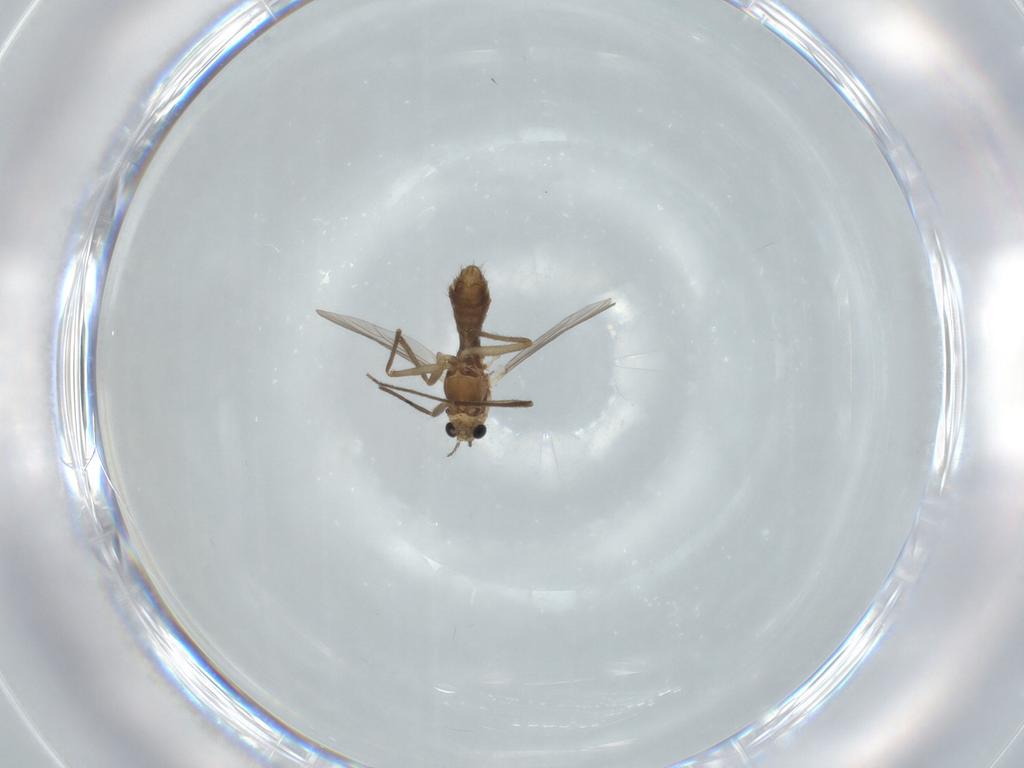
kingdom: Animalia
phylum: Arthropoda
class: Insecta
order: Diptera
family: Chironomidae
